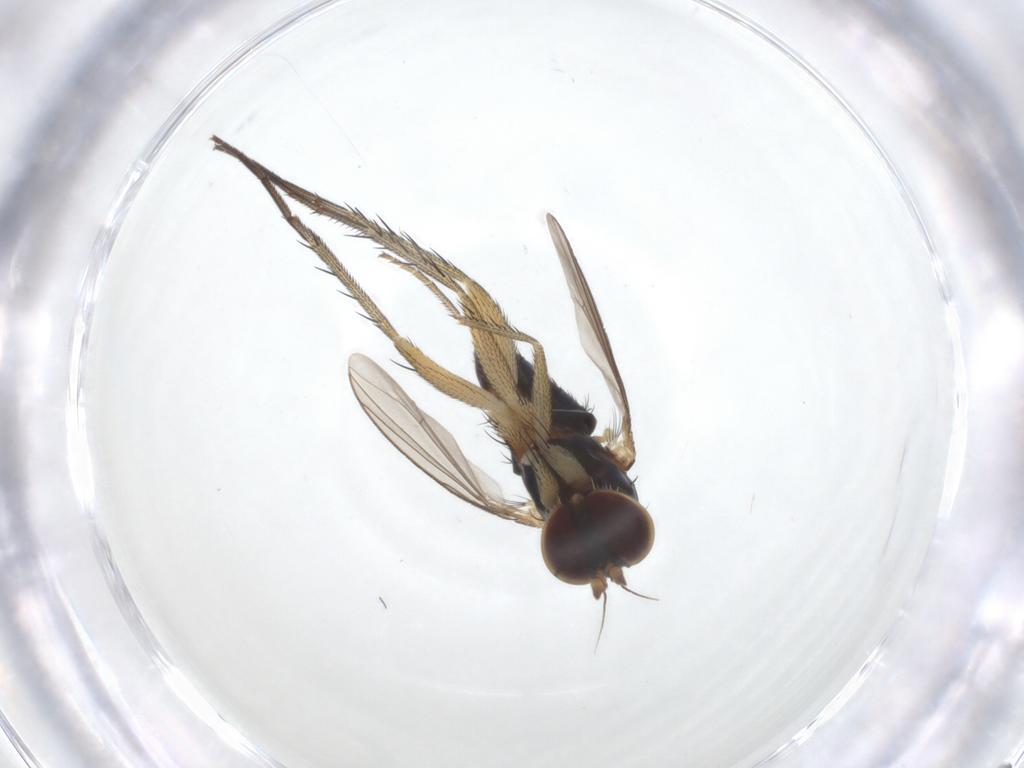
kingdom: Animalia
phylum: Arthropoda
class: Insecta
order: Diptera
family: Dolichopodidae
